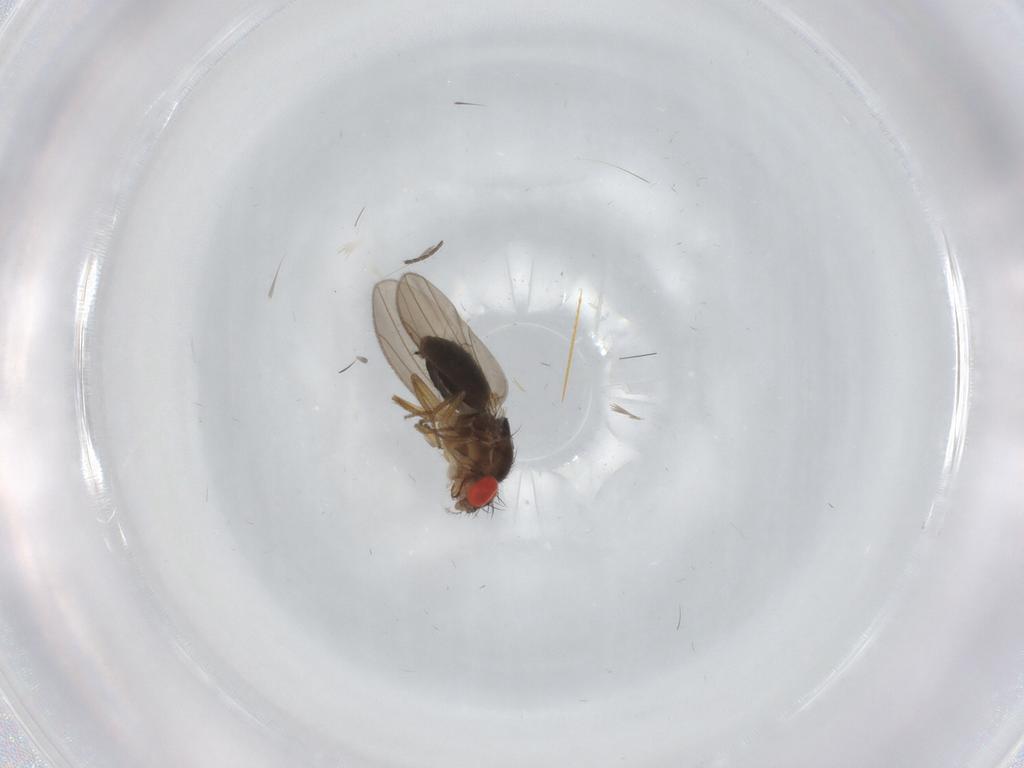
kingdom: Animalia
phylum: Arthropoda
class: Insecta
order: Diptera
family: Drosophilidae
